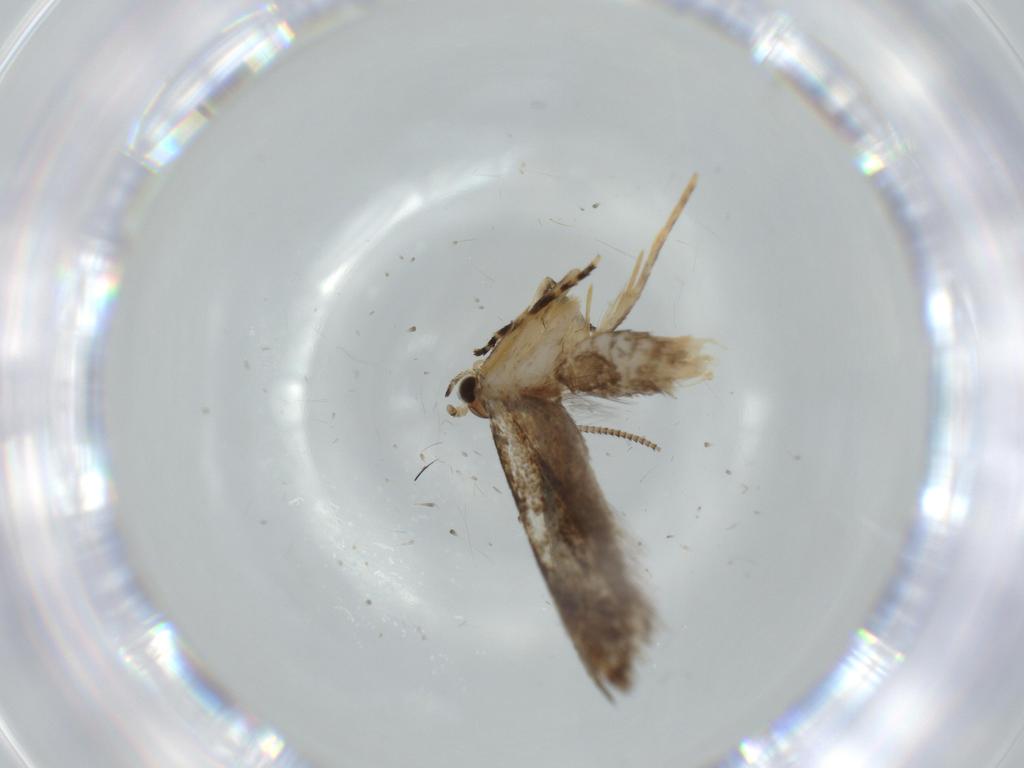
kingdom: Animalia
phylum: Arthropoda
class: Insecta
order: Lepidoptera
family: Tineidae
